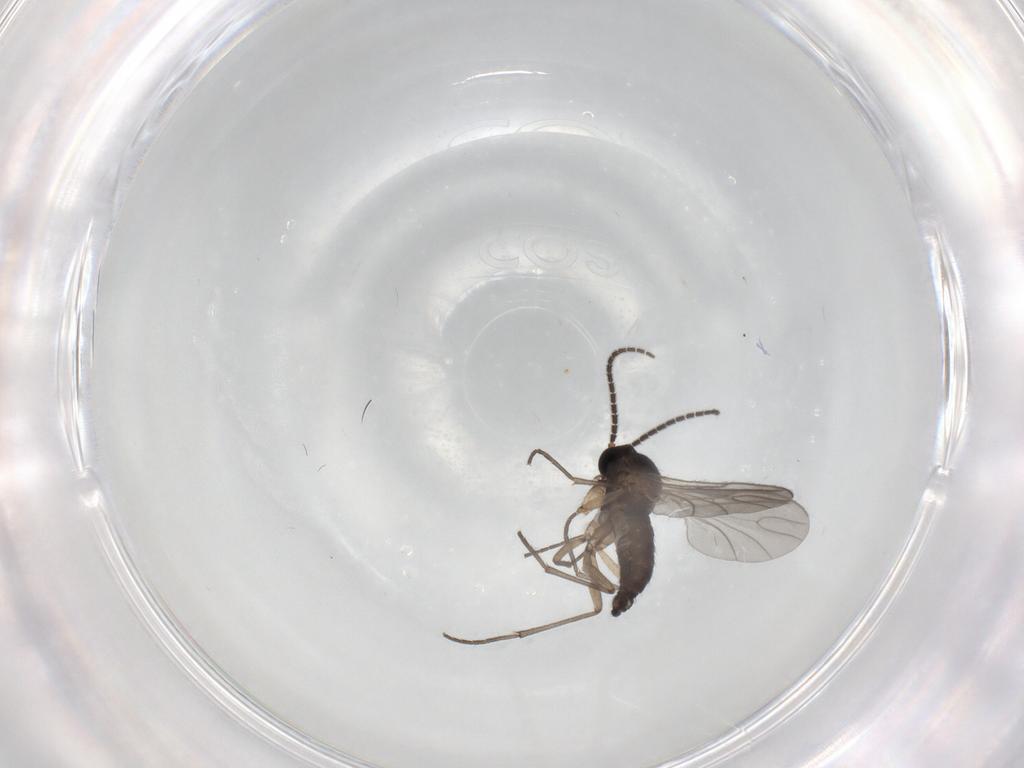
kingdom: Animalia
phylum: Arthropoda
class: Insecta
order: Diptera
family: Sciaridae
